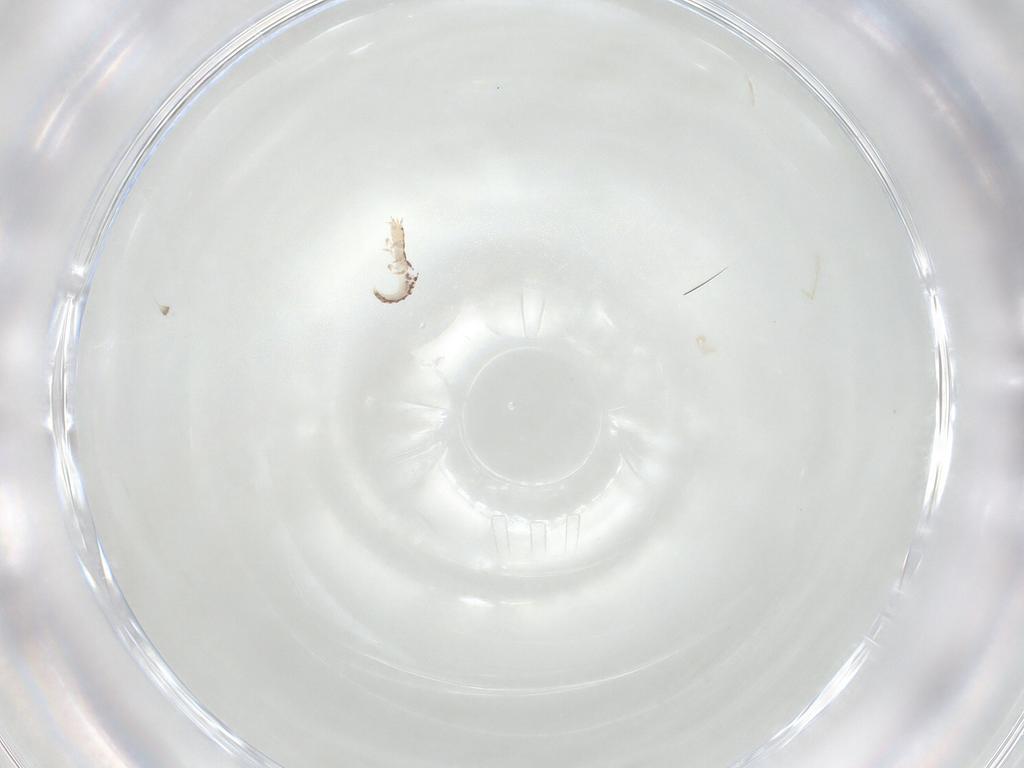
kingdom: Animalia
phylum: Arthropoda
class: Insecta
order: Neuroptera
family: Mantispidae
